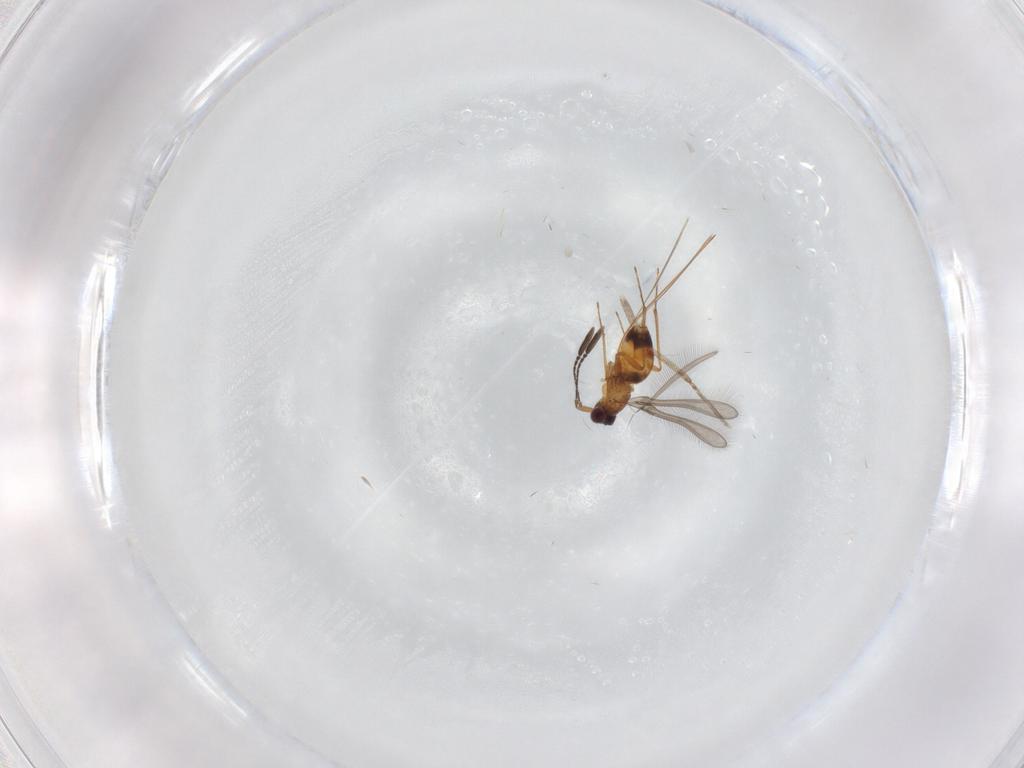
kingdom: Animalia
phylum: Arthropoda
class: Insecta
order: Diptera
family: Cecidomyiidae
